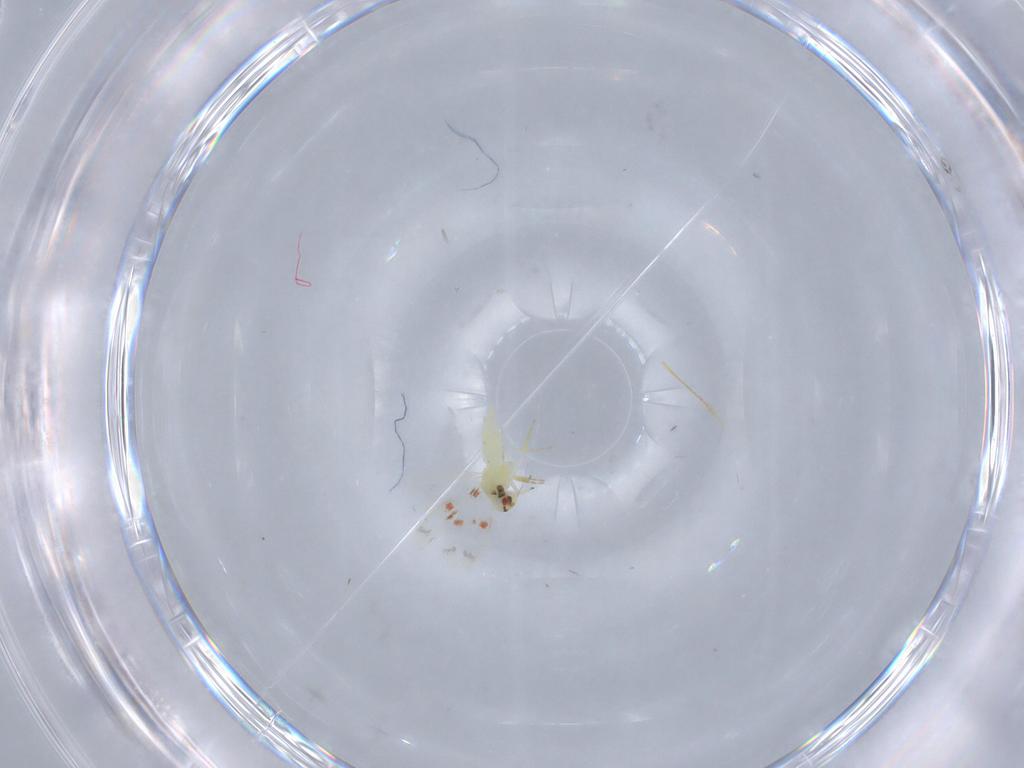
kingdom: Animalia
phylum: Arthropoda
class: Insecta
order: Hemiptera
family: Aleyrodidae
